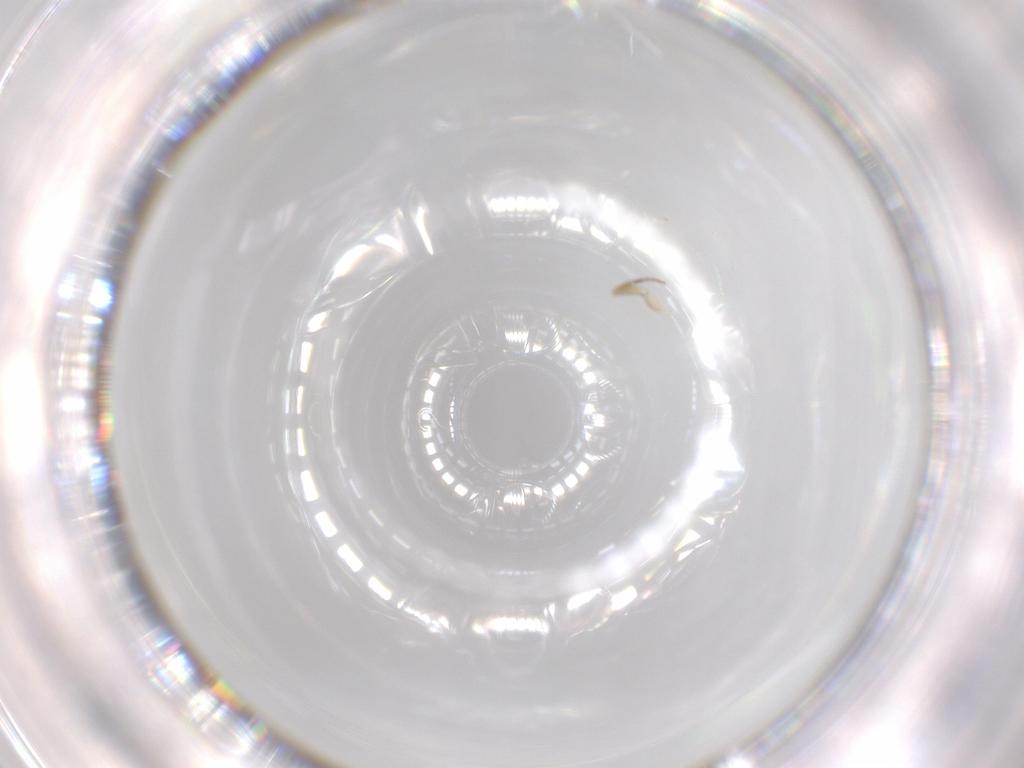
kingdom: Animalia
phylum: Arthropoda
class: Insecta
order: Diptera
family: Phoridae
